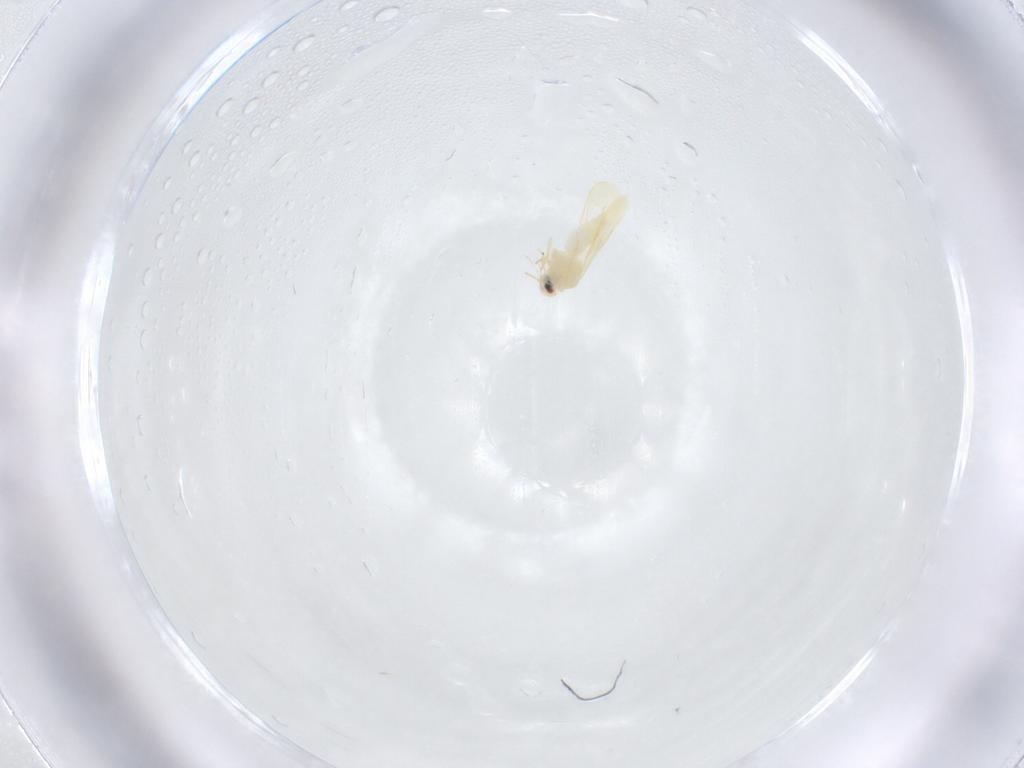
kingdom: Animalia
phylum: Arthropoda
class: Insecta
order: Hemiptera
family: Aleyrodidae
